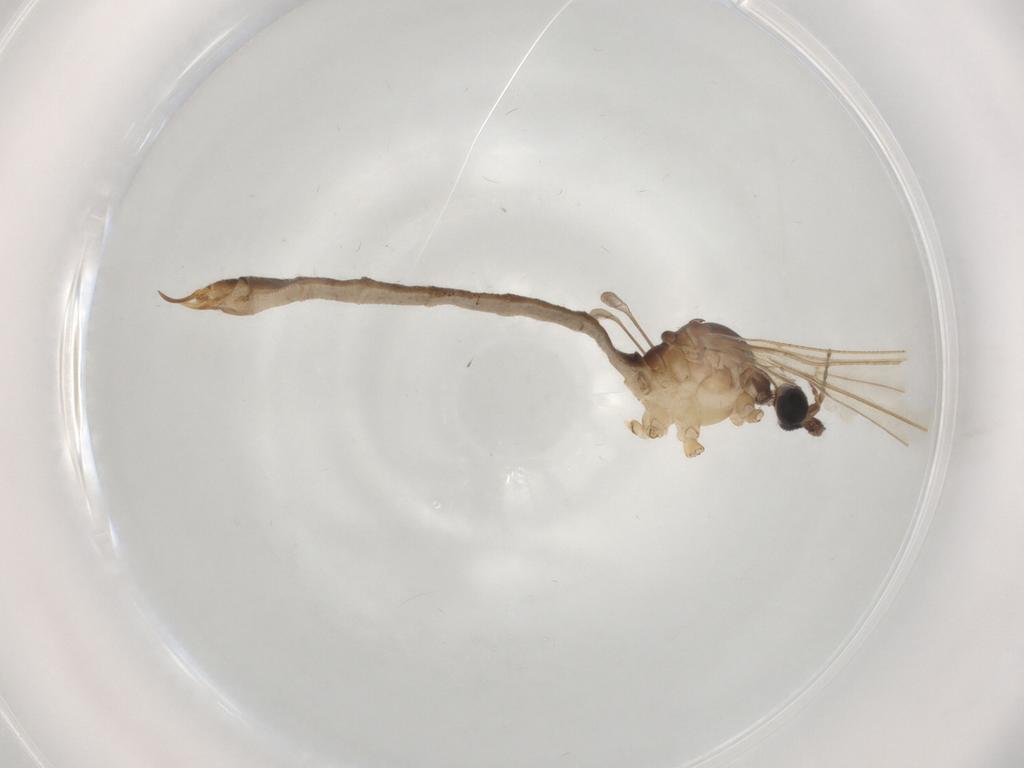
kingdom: Animalia
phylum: Arthropoda
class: Insecta
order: Diptera
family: Limoniidae
